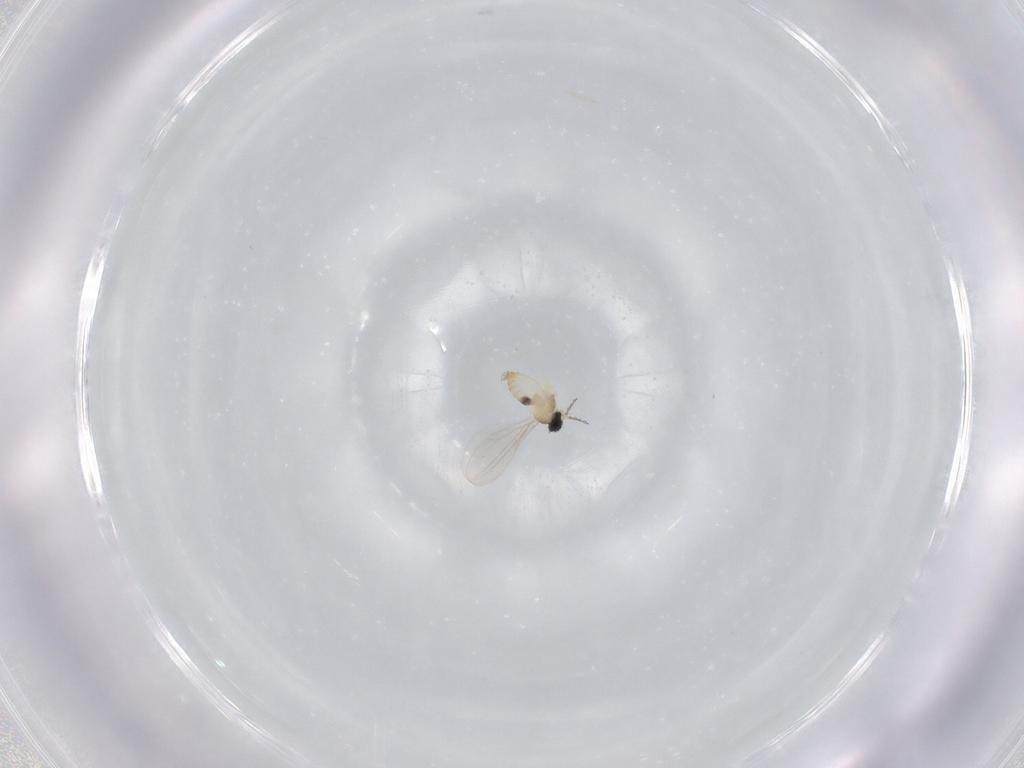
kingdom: Animalia
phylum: Arthropoda
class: Insecta
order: Diptera
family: Cecidomyiidae
